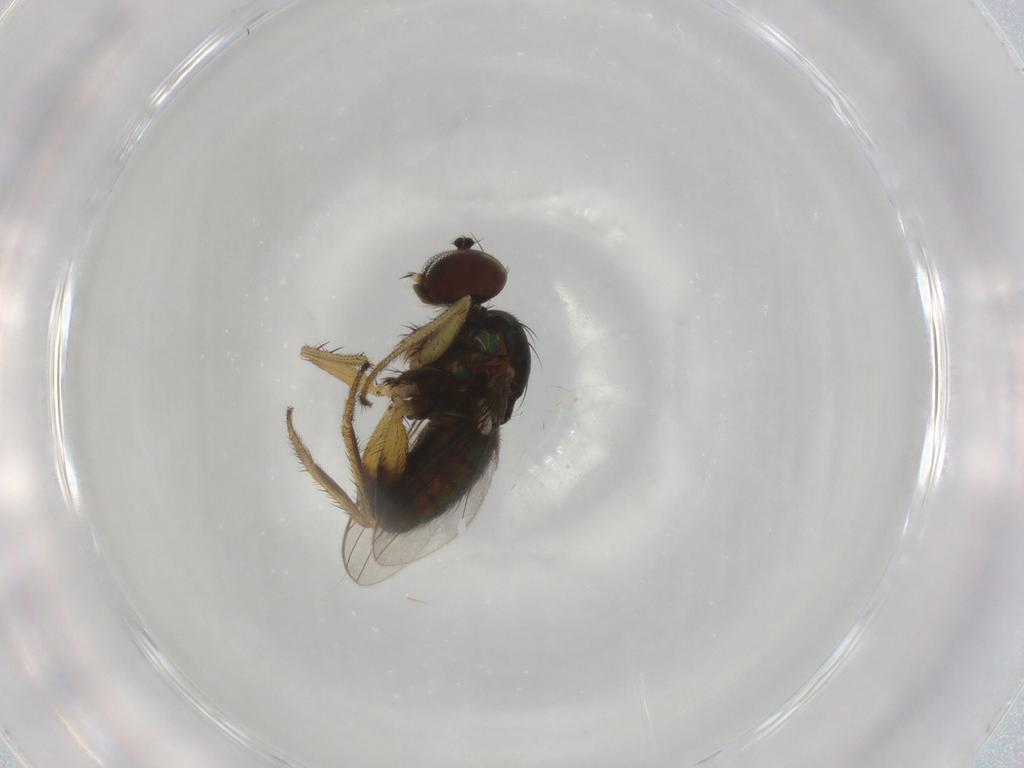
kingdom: Animalia
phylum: Arthropoda
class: Insecta
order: Diptera
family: Dolichopodidae
